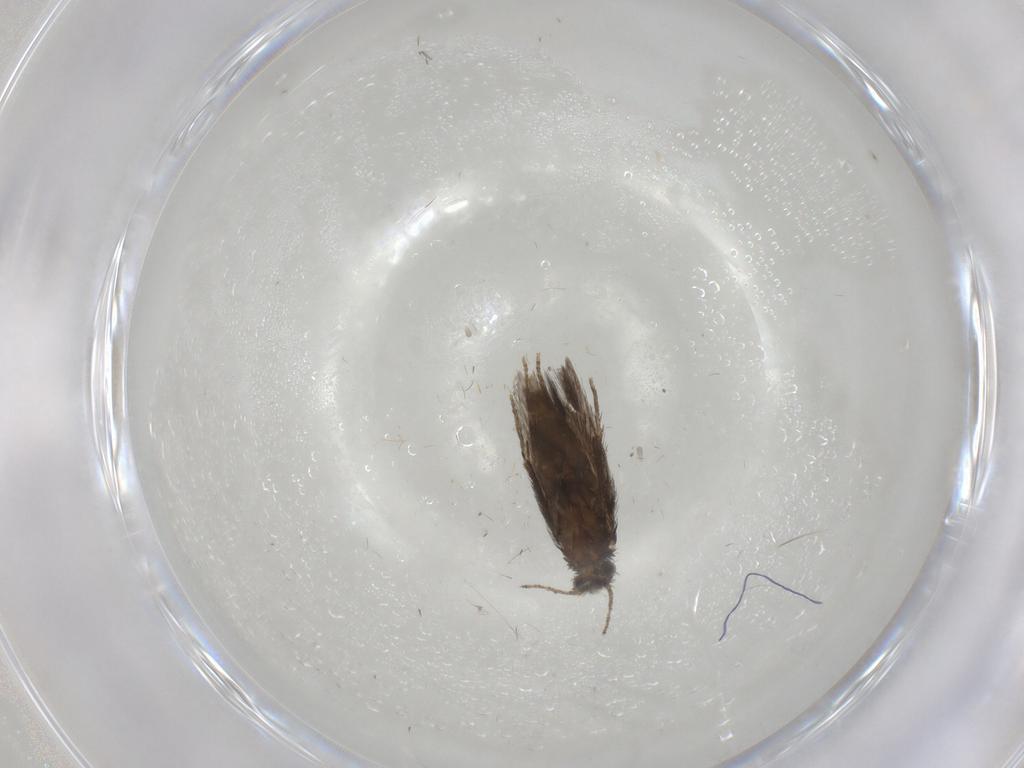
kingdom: Animalia
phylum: Arthropoda
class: Insecta
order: Trichoptera
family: Hydroptilidae
